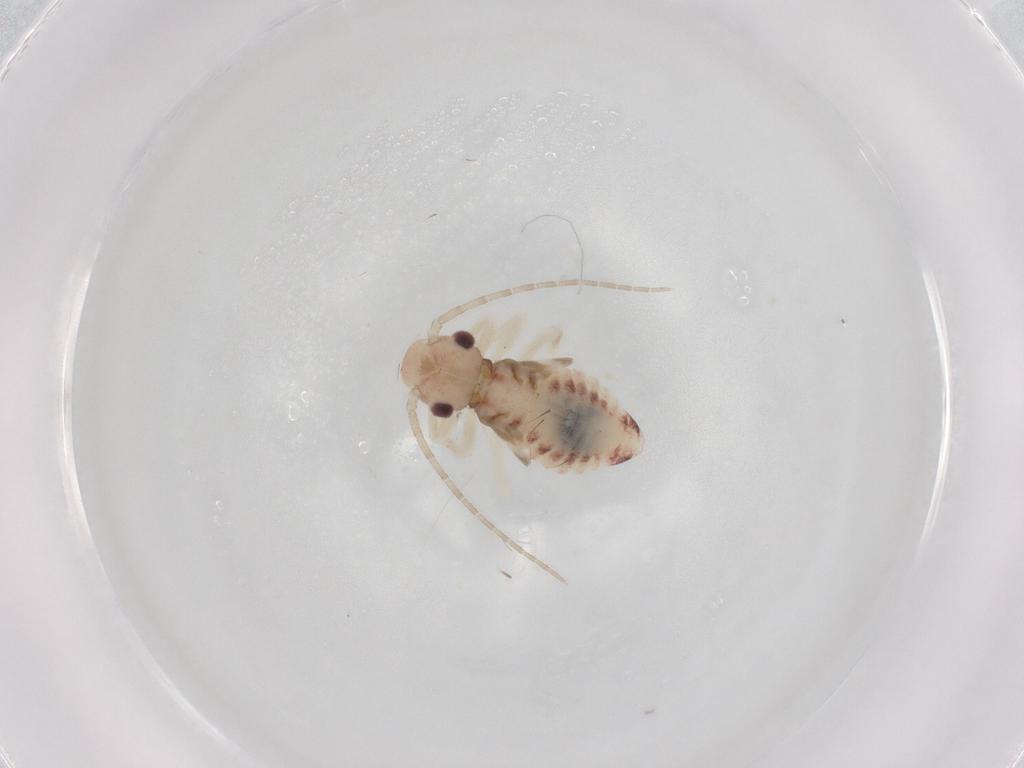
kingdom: Animalia
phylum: Arthropoda
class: Insecta
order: Psocodea
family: Amphipsocidae
